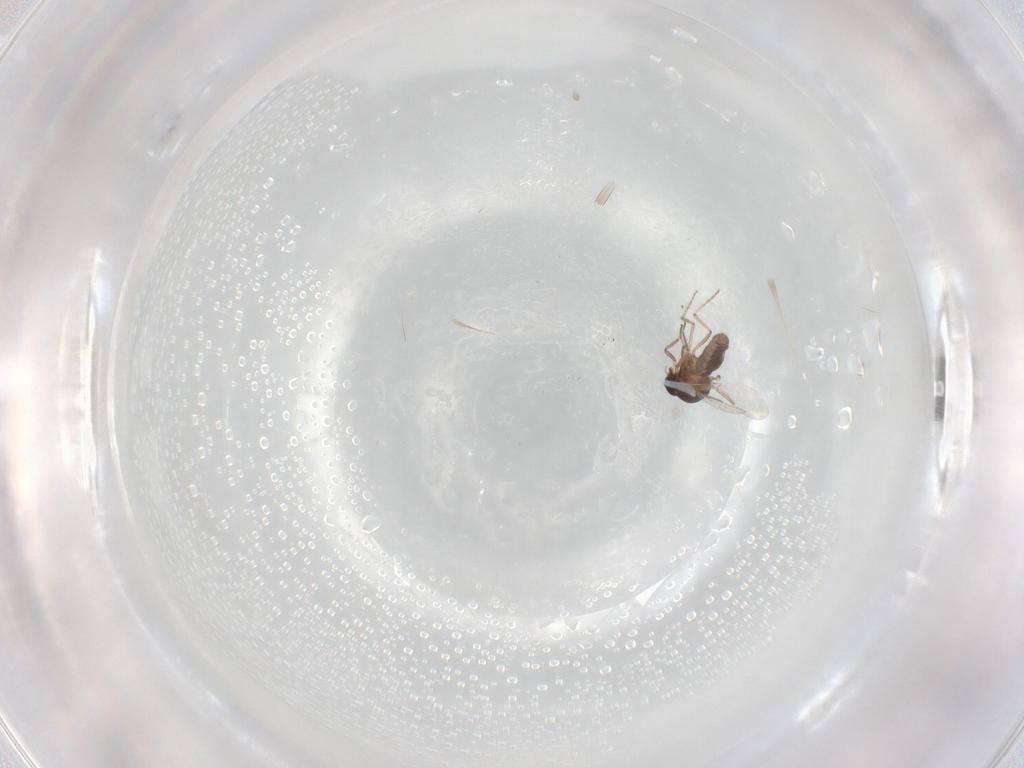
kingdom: Animalia
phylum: Arthropoda
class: Insecta
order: Diptera
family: Ceratopogonidae
